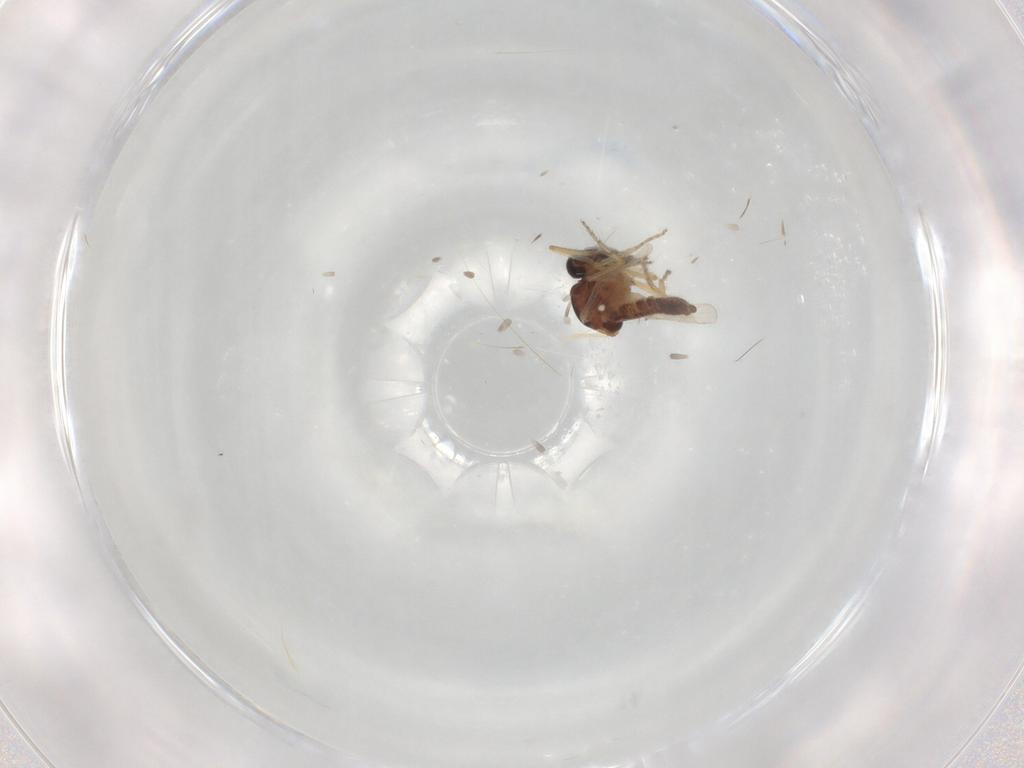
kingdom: Animalia
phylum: Arthropoda
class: Insecta
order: Diptera
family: Ceratopogonidae
